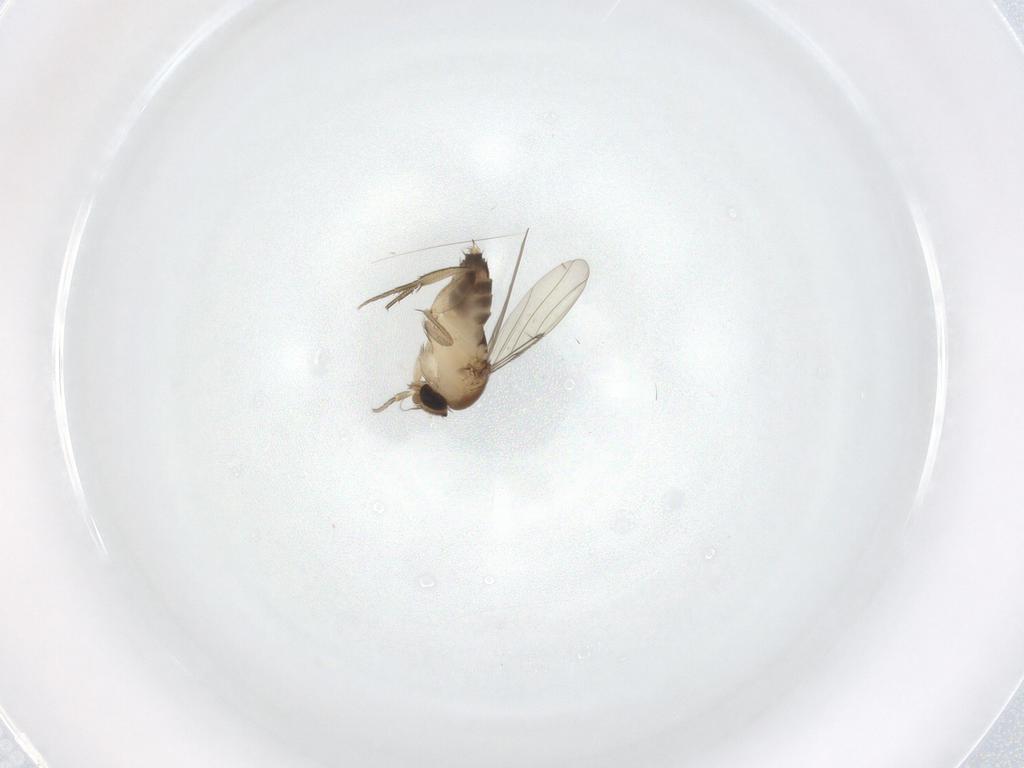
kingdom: Animalia
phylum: Arthropoda
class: Insecta
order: Diptera
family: Phoridae
